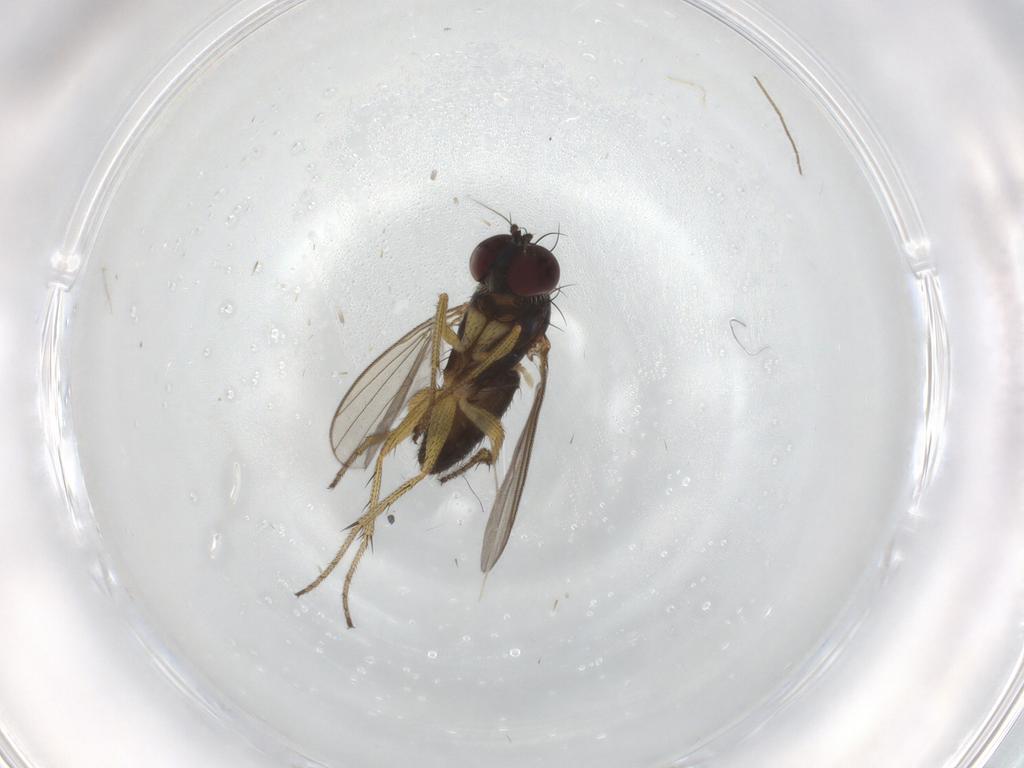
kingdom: Animalia
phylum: Arthropoda
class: Insecta
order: Diptera
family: Chironomidae
